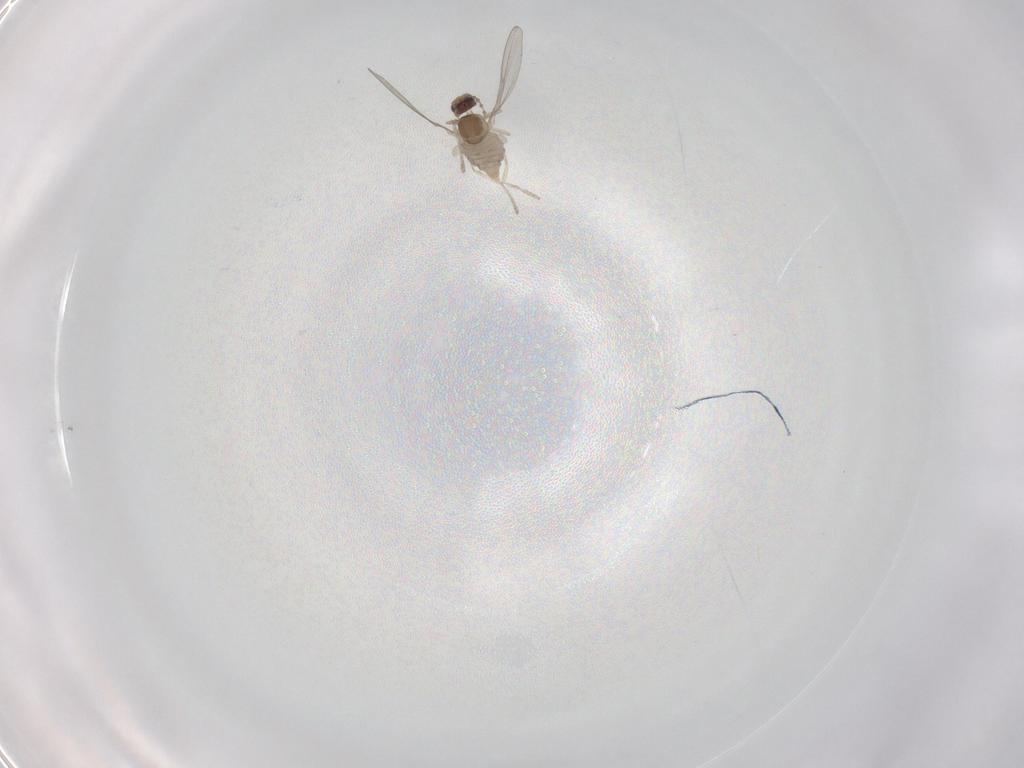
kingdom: Animalia
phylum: Arthropoda
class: Insecta
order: Diptera
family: Cecidomyiidae
